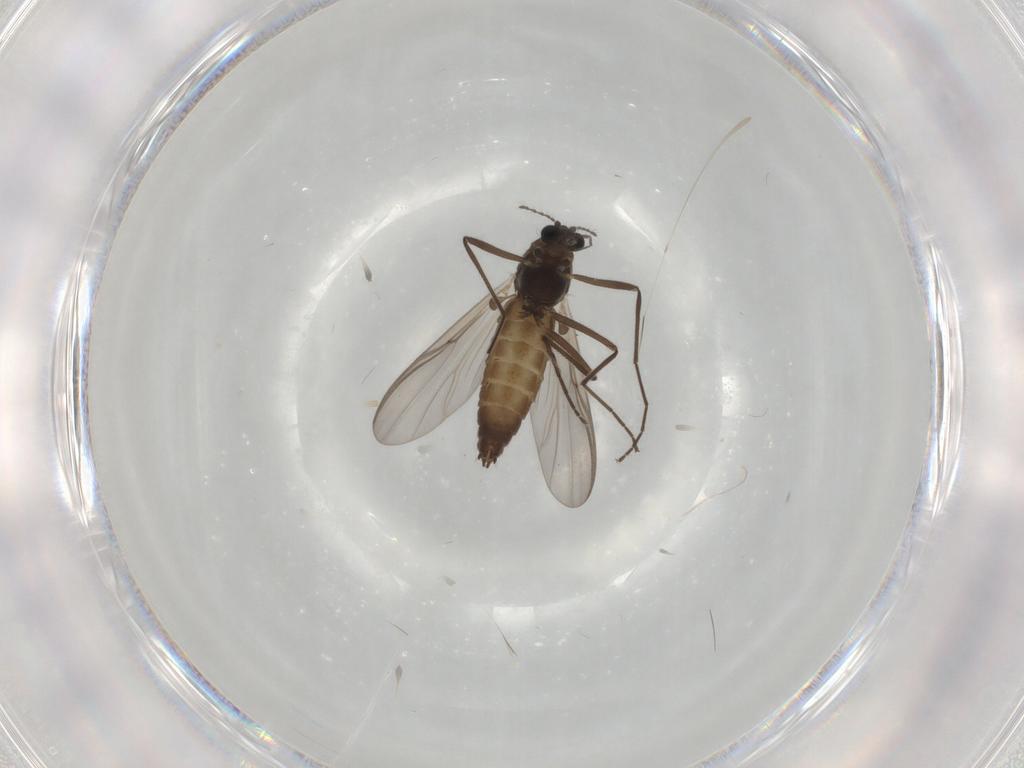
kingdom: Animalia
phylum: Arthropoda
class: Insecta
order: Diptera
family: Chironomidae
